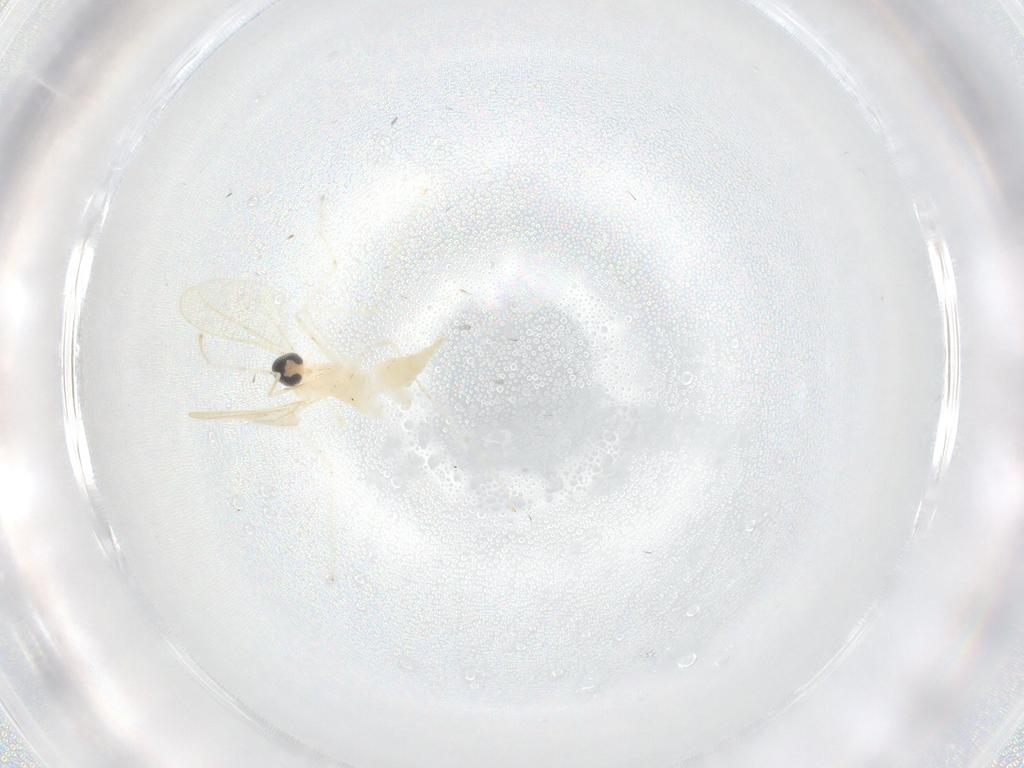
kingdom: Animalia
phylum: Arthropoda
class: Insecta
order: Diptera
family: Cecidomyiidae
